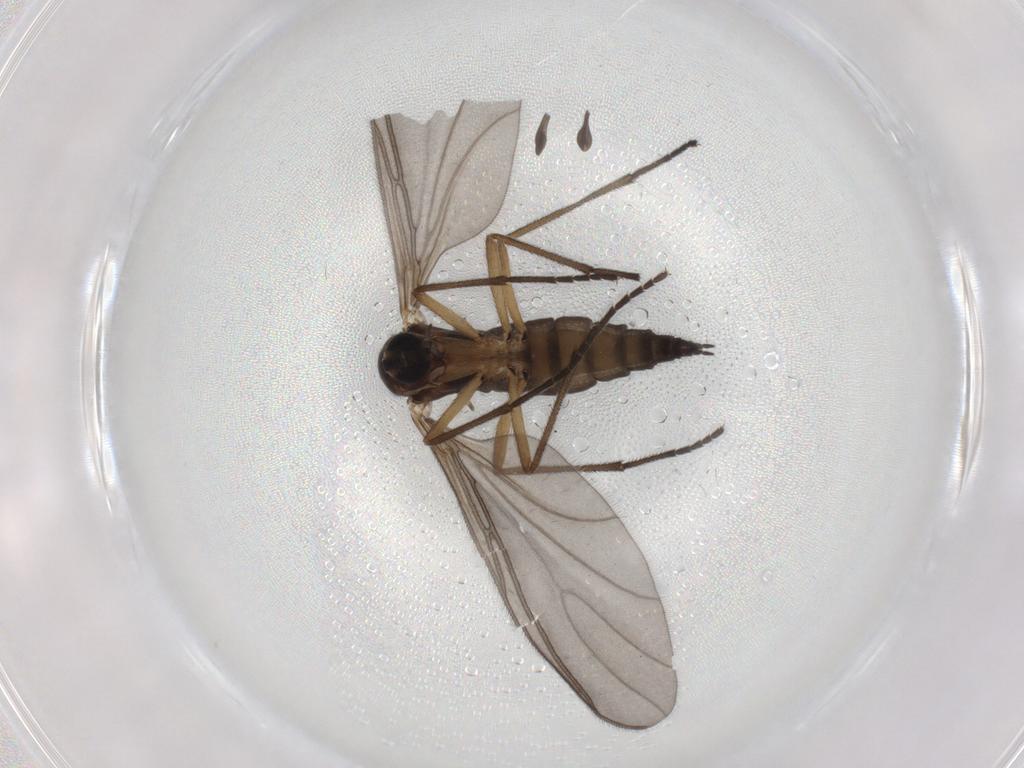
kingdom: Animalia
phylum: Arthropoda
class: Insecta
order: Diptera
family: Sciaridae
